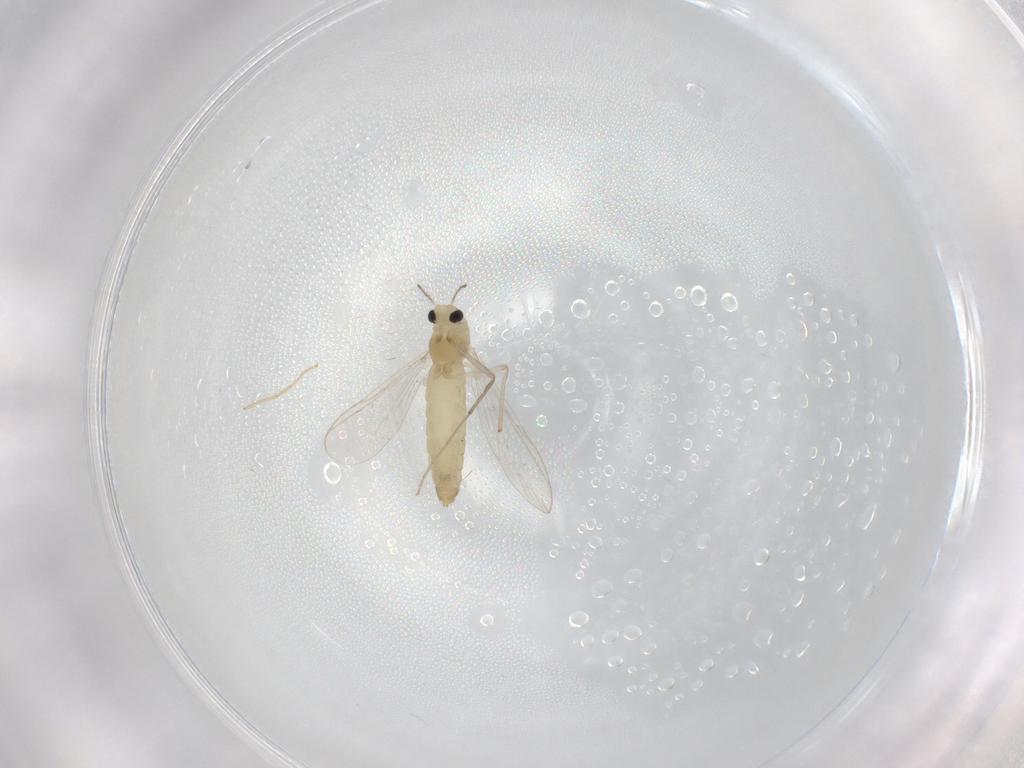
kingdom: Animalia
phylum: Arthropoda
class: Insecta
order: Diptera
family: Chironomidae
